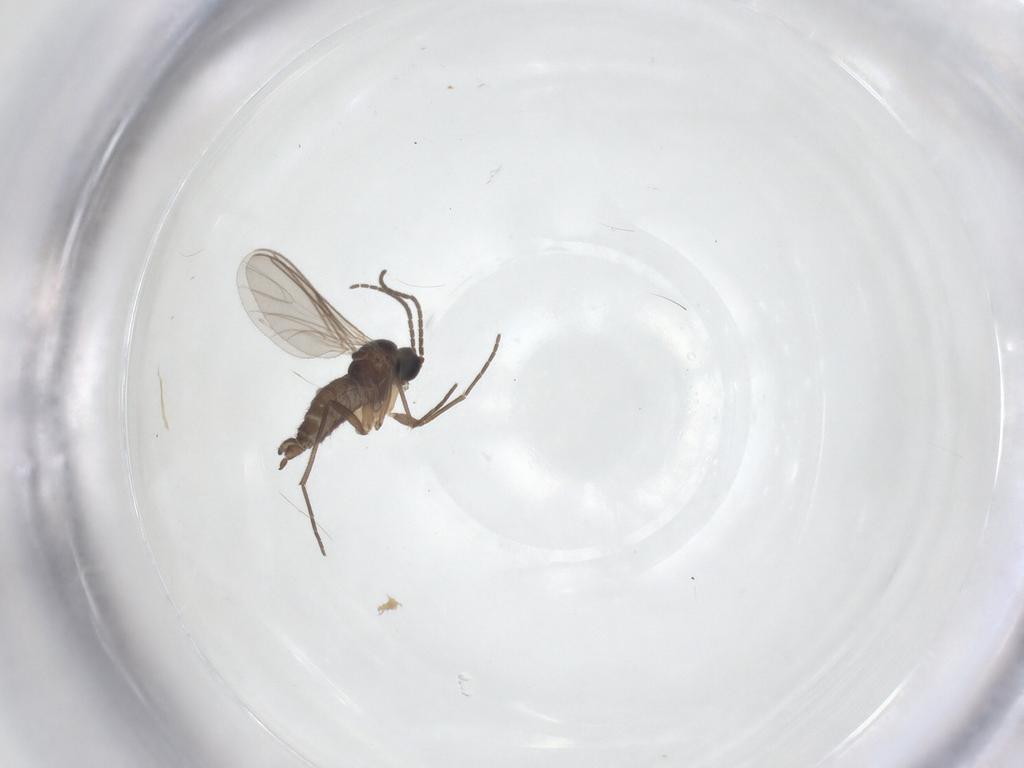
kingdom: Animalia
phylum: Arthropoda
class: Insecta
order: Diptera
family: Sciaridae
